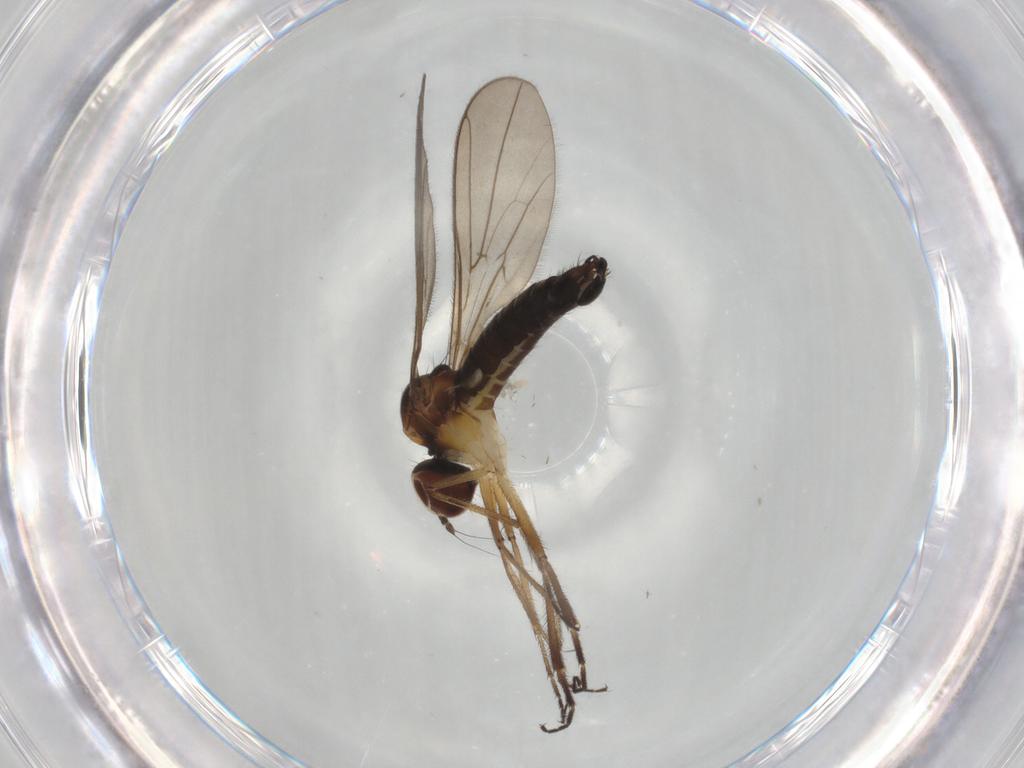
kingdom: Animalia
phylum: Arthropoda
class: Insecta
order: Diptera
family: Hybotidae
